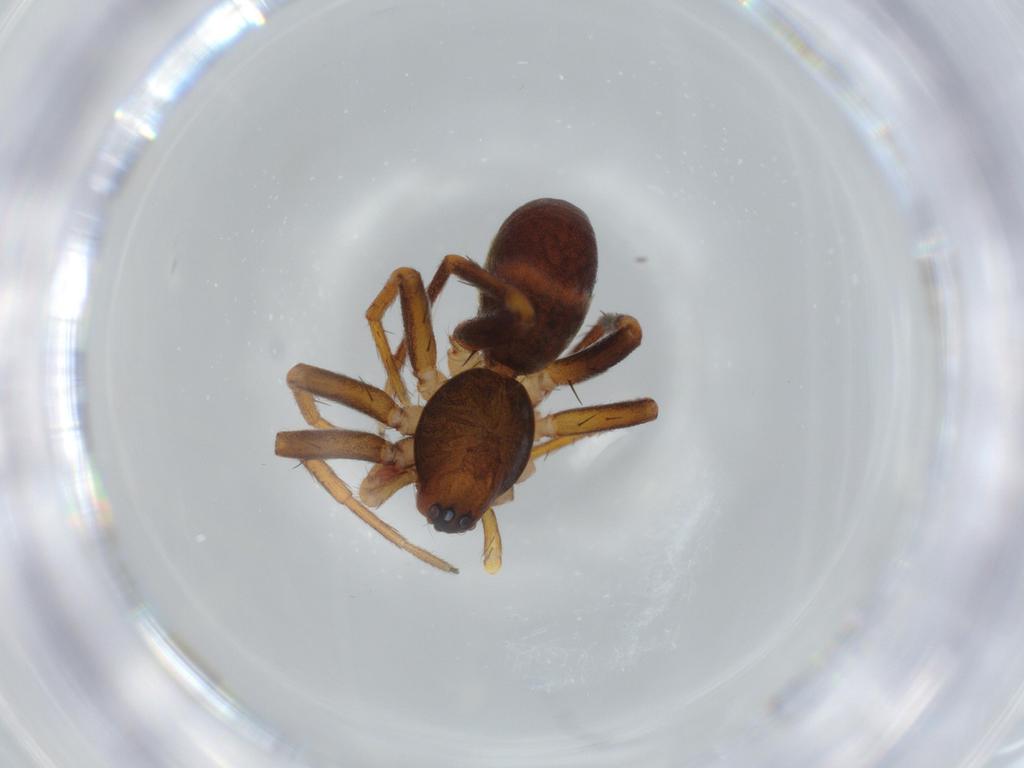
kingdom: Animalia
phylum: Arthropoda
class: Arachnida
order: Araneae
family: Corinnidae
